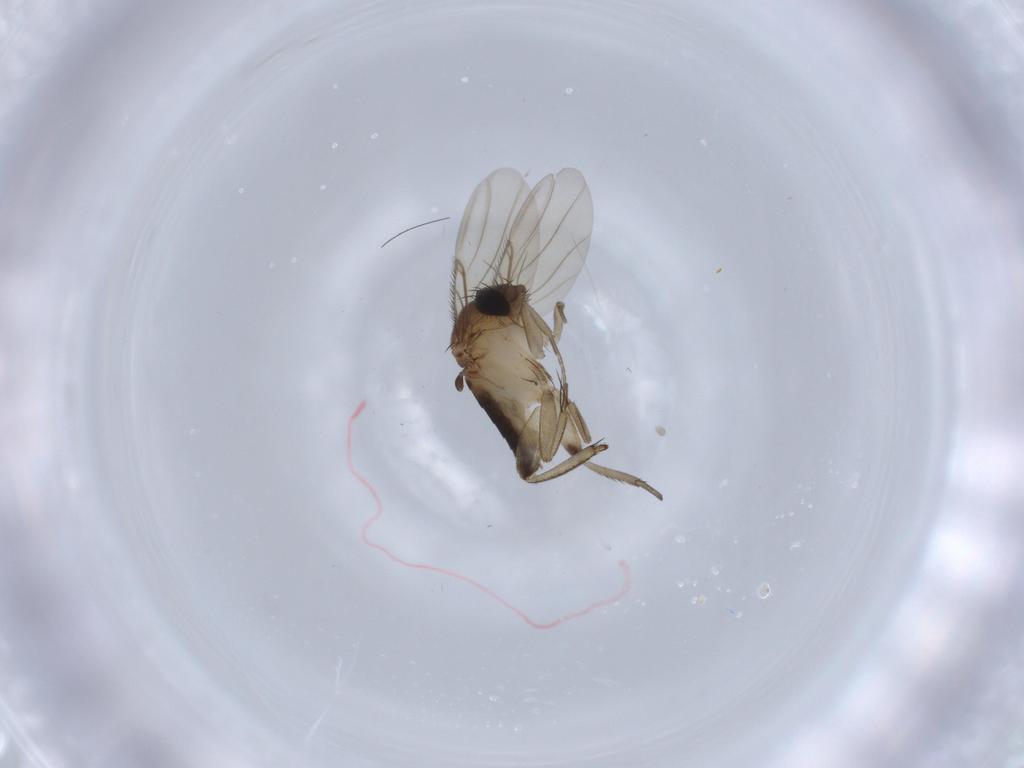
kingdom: Animalia
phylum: Arthropoda
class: Insecta
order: Diptera
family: Phoridae
